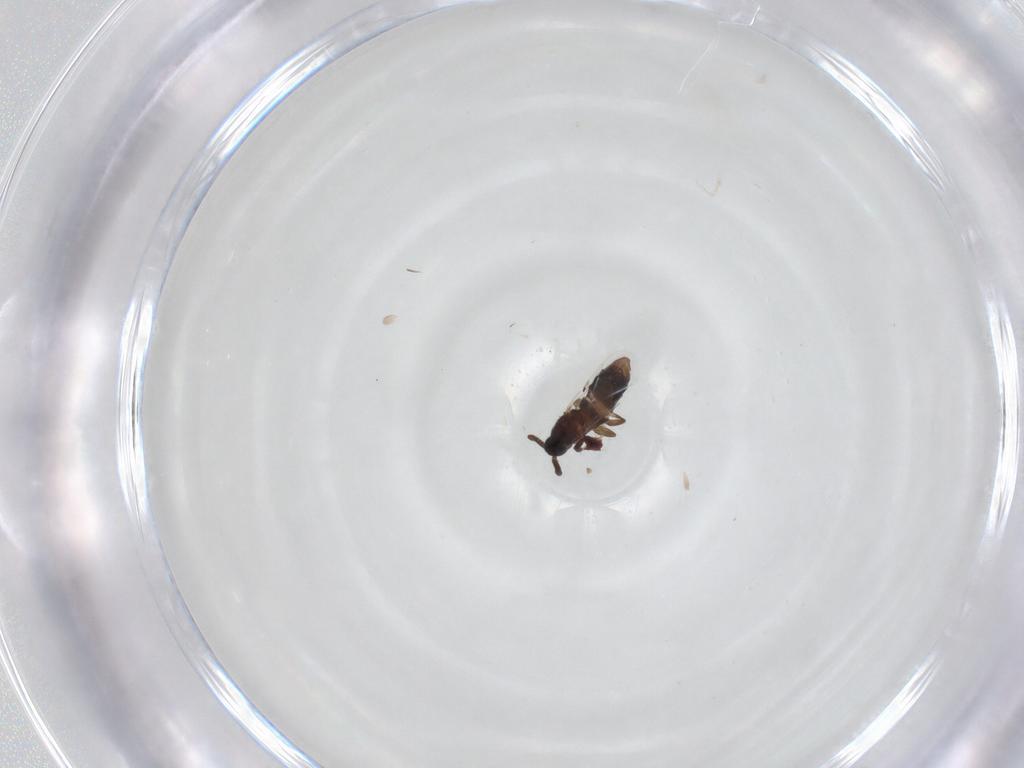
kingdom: Animalia
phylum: Arthropoda
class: Insecta
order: Diptera
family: Scatopsidae
